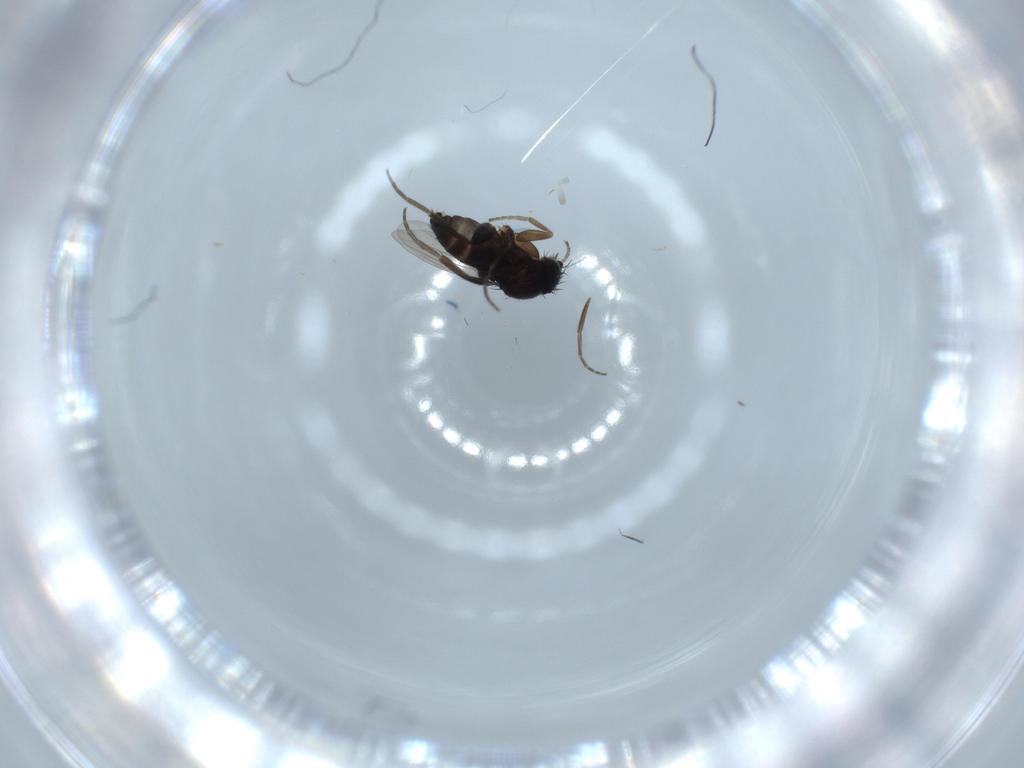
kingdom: Animalia
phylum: Arthropoda
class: Insecta
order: Diptera
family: Phoridae
